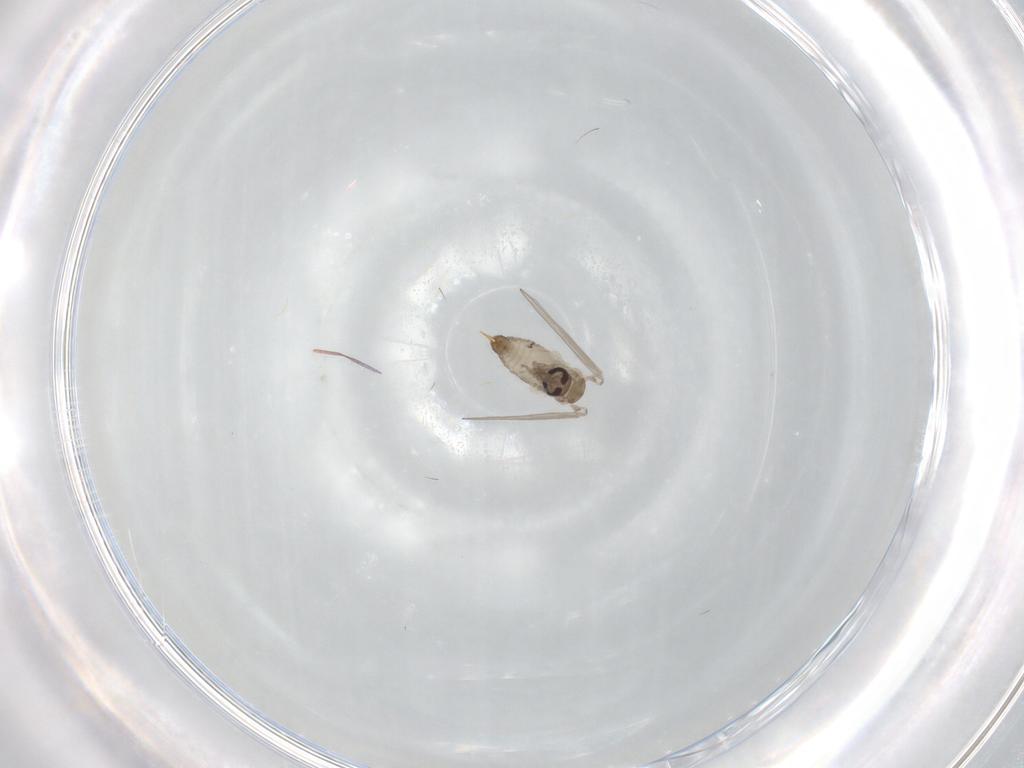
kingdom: Animalia
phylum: Arthropoda
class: Insecta
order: Diptera
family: Psychodidae
